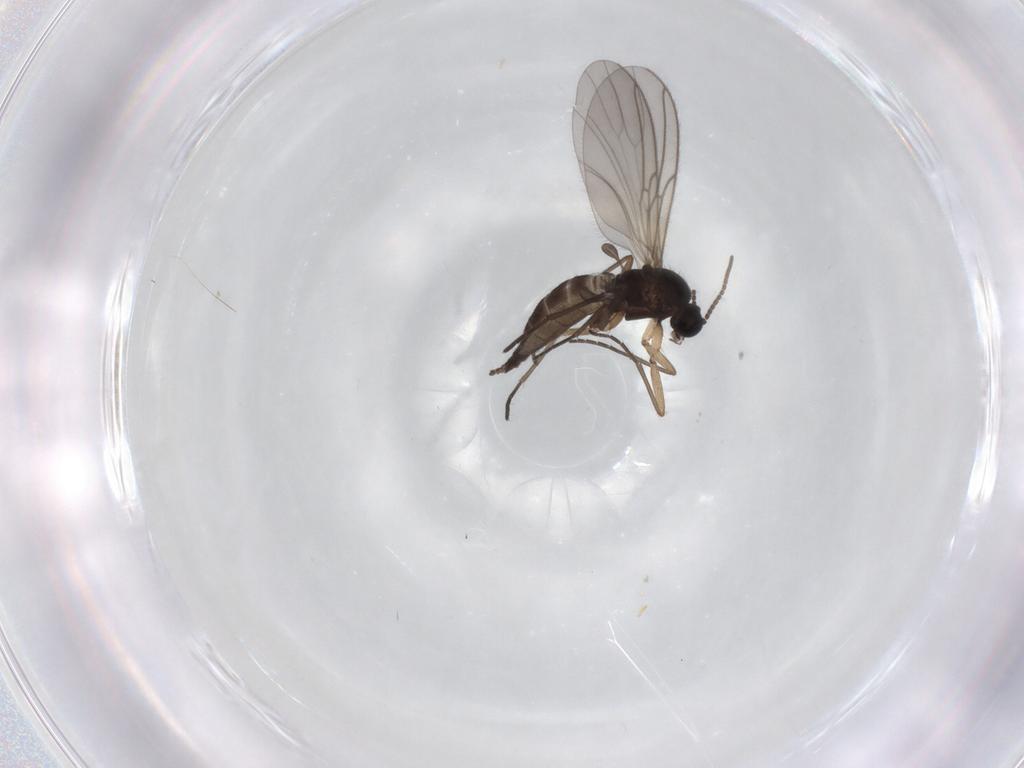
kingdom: Animalia
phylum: Arthropoda
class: Insecta
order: Diptera
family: Sciaridae
